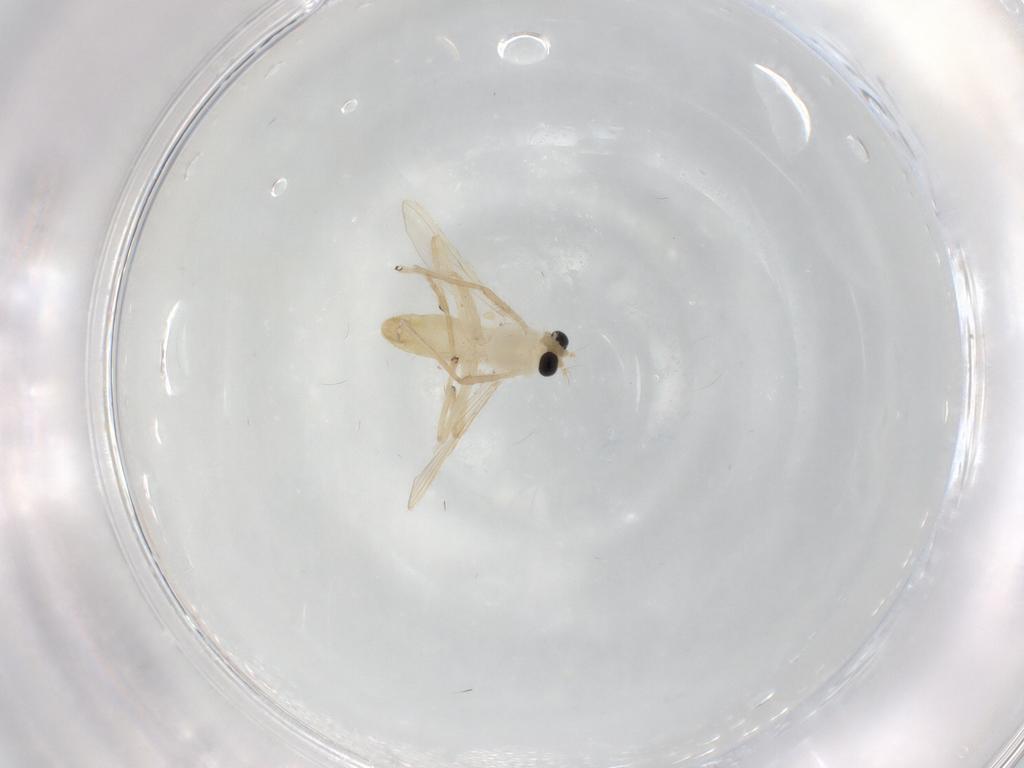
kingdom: Animalia
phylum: Arthropoda
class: Insecta
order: Diptera
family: Chironomidae
